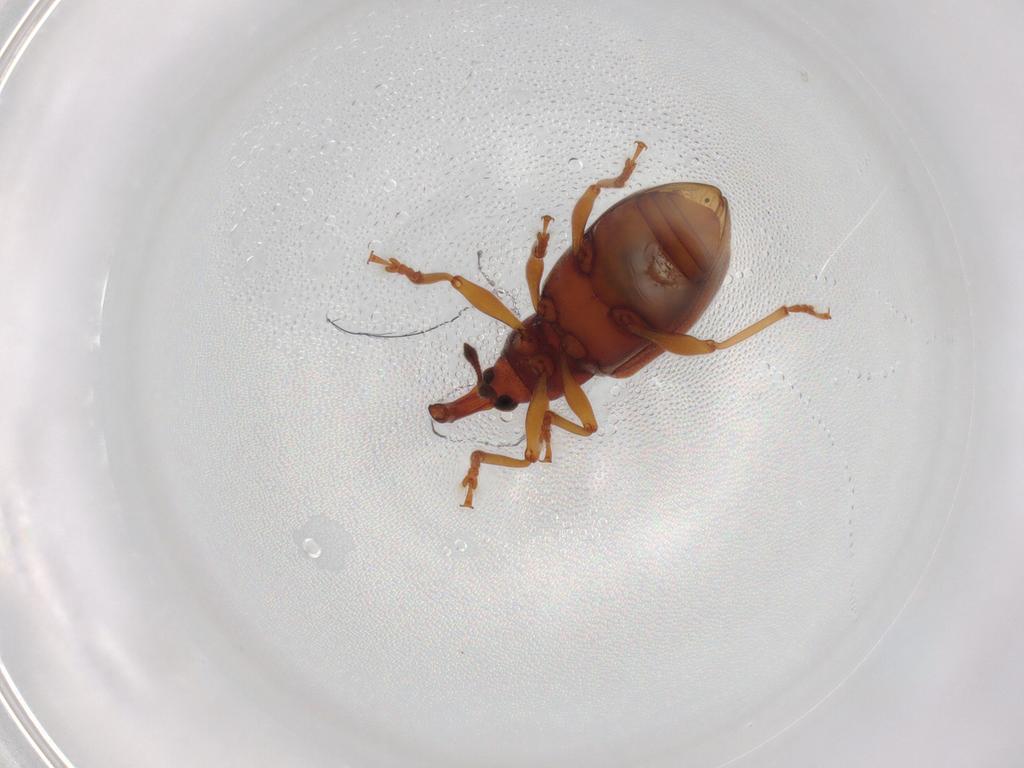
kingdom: Animalia
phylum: Arthropoda
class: Insecta
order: Coleoptera
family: Curculionidae
